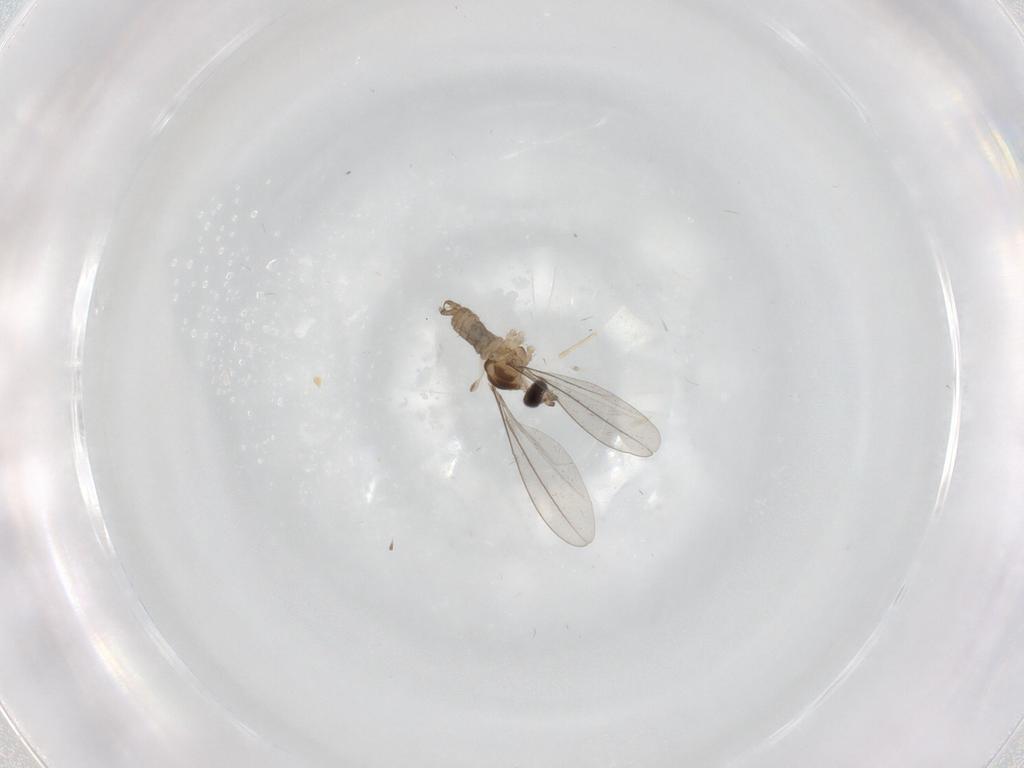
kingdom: Animalia
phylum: Arthropoda
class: Insecta
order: Diptera
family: Cecidomyiidae
